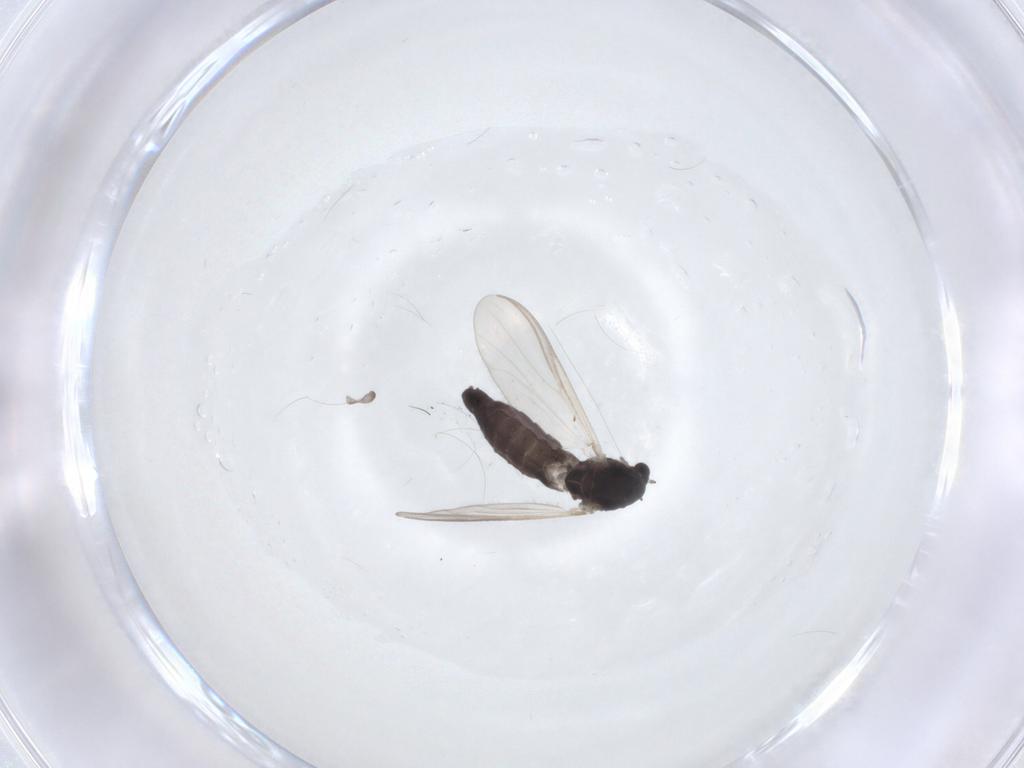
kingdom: Animalia
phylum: Arthropoda
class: Insecta
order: Diptera
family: Chironomidae
